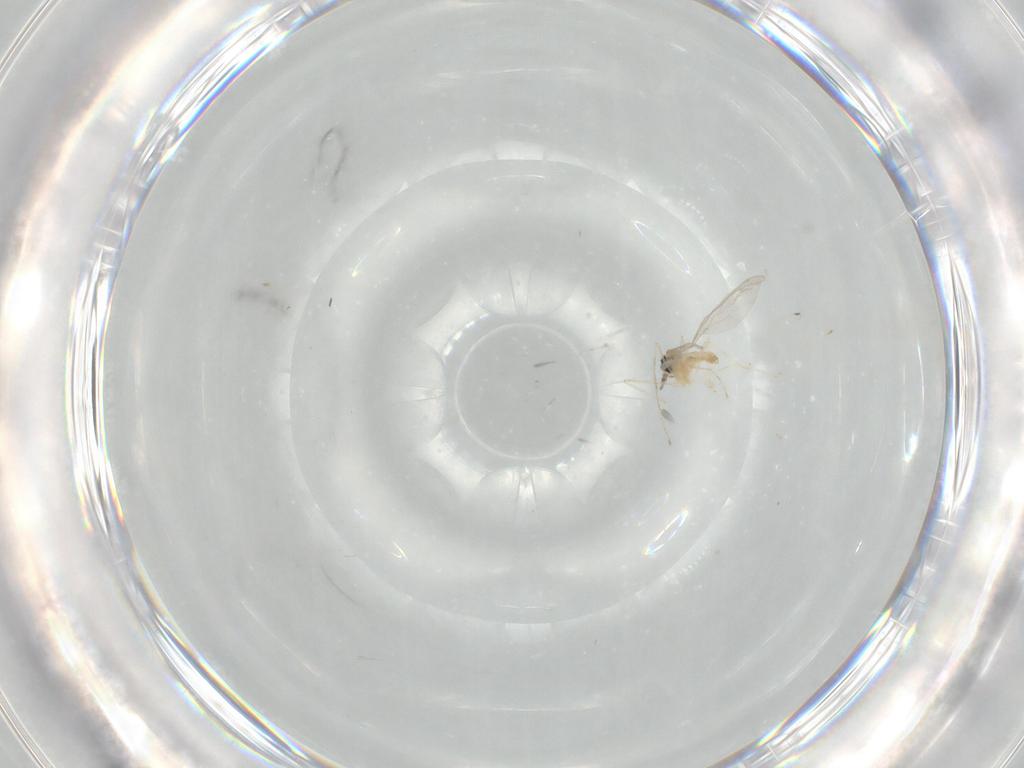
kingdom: Animalia
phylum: Arthropoda
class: Insecta
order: Diptera
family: Cecidomyiidae
